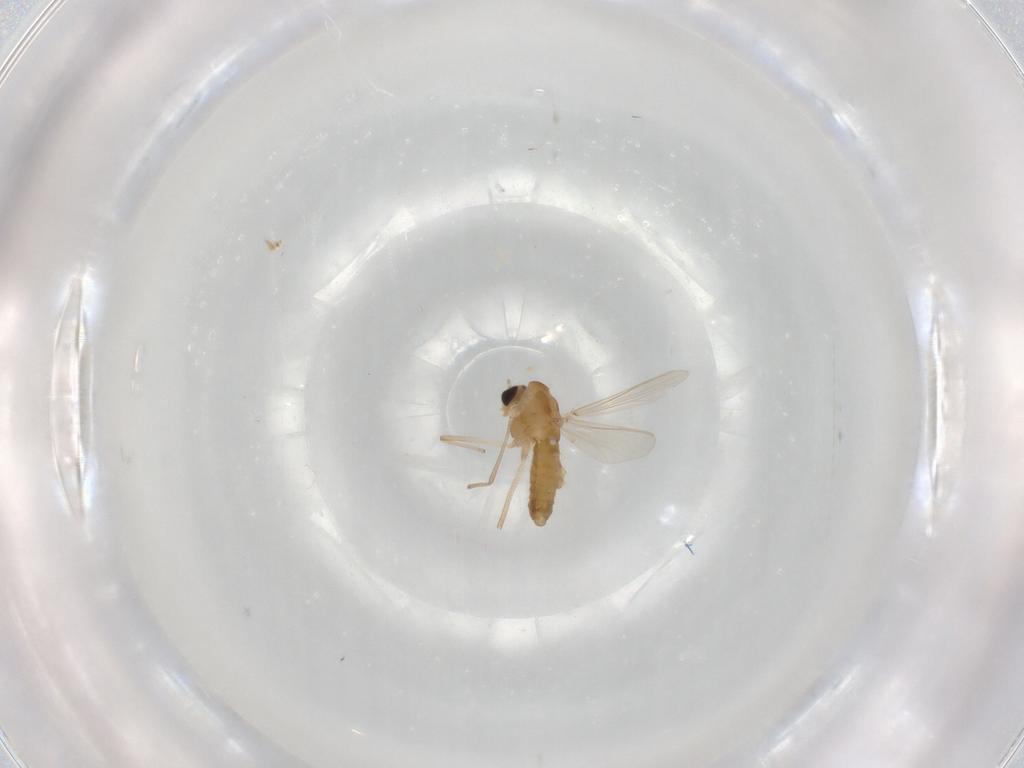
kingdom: Animalia
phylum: Arthropoda
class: Insecta
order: Diptera
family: Chironomidae
